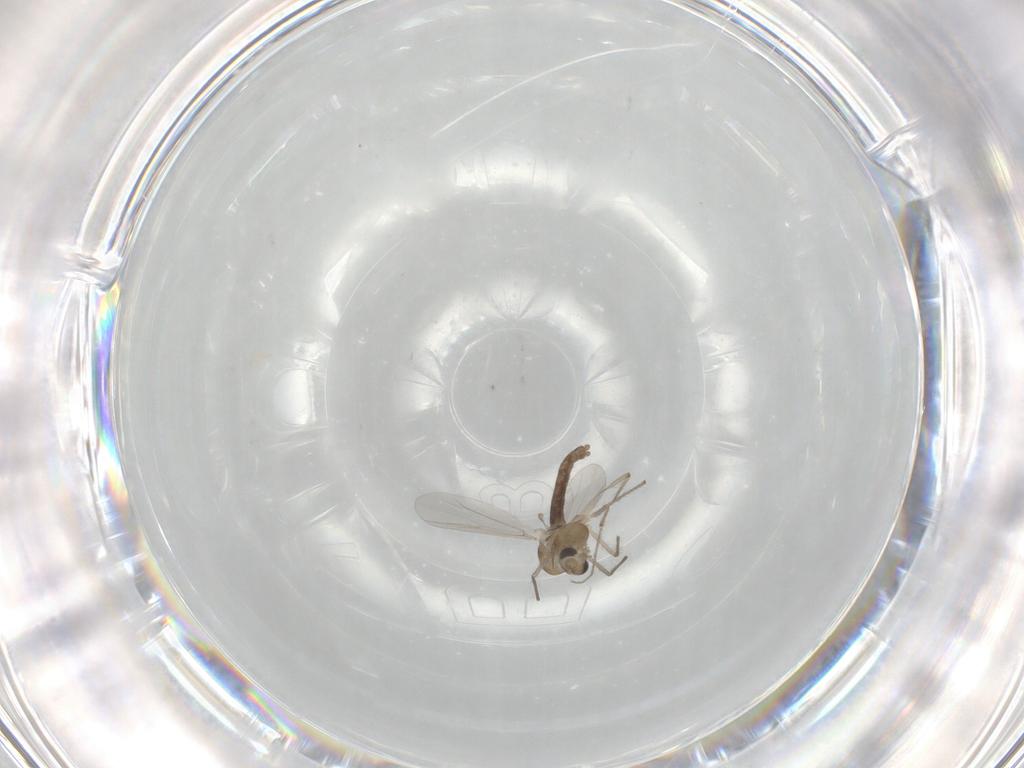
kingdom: Animalia
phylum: Arthropoda
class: Insecta
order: Diptera
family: Chironomidae
